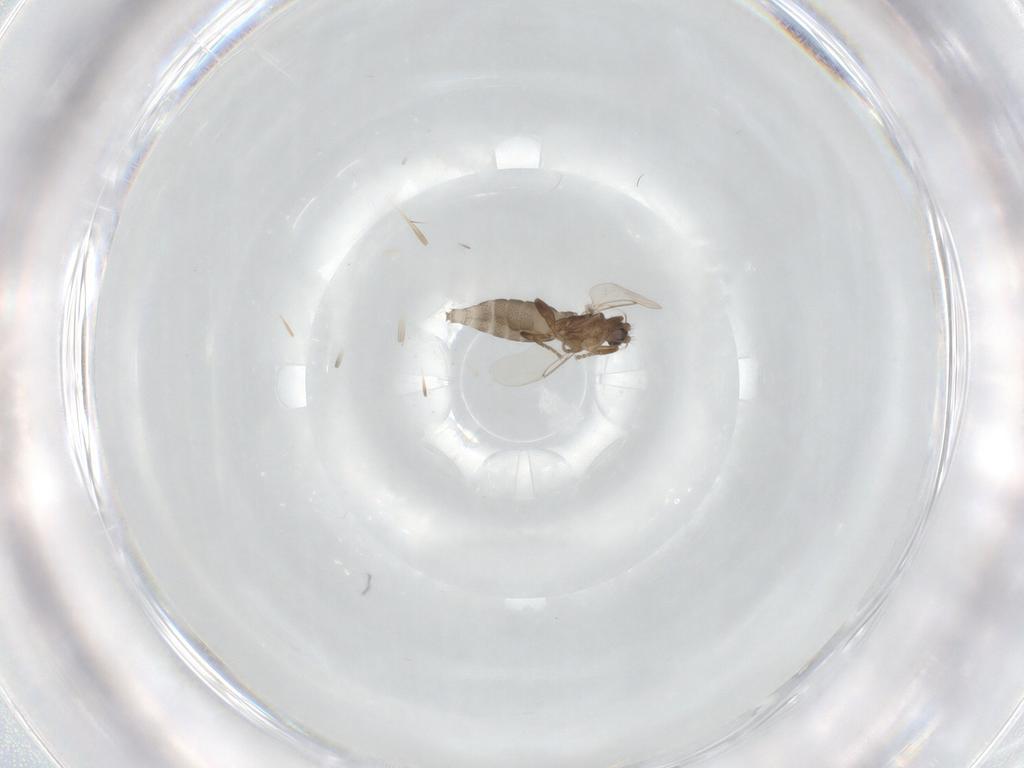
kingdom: Animalia
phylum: Arthropoda
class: Insecta
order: Diptera
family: Phoridae
